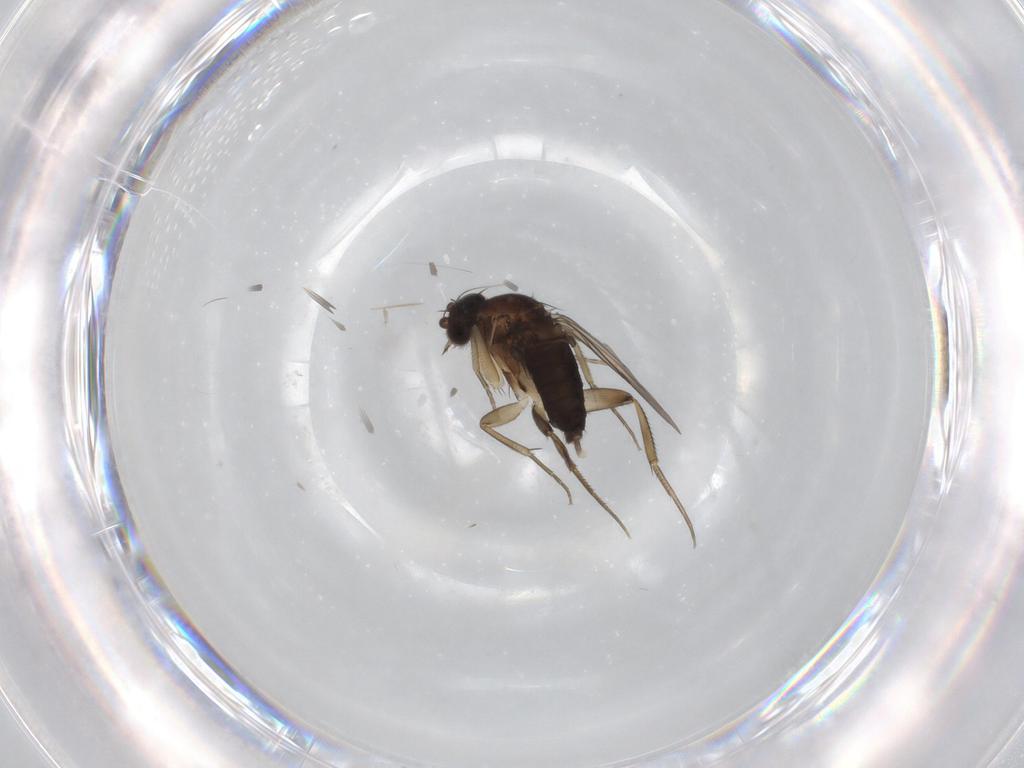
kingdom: Animalia
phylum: Arthropoda
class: Insecta
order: Diptera
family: Phoridae
